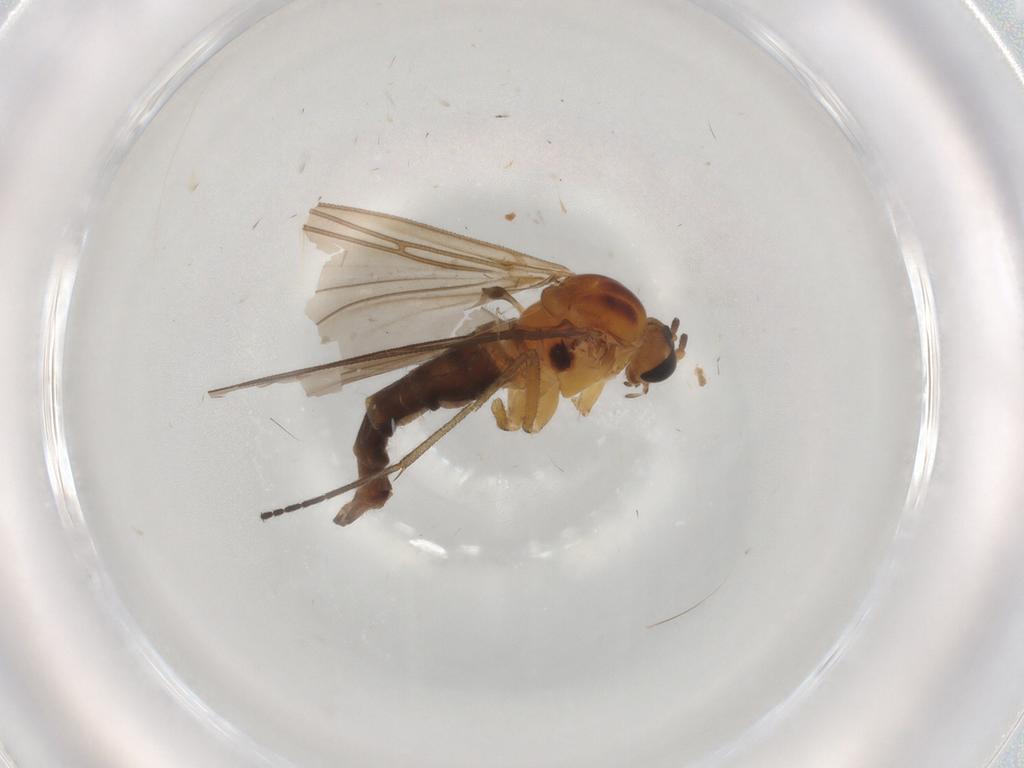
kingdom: Animalia
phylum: Arthropoda
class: Insecta
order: Diptera
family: Sciaridae
